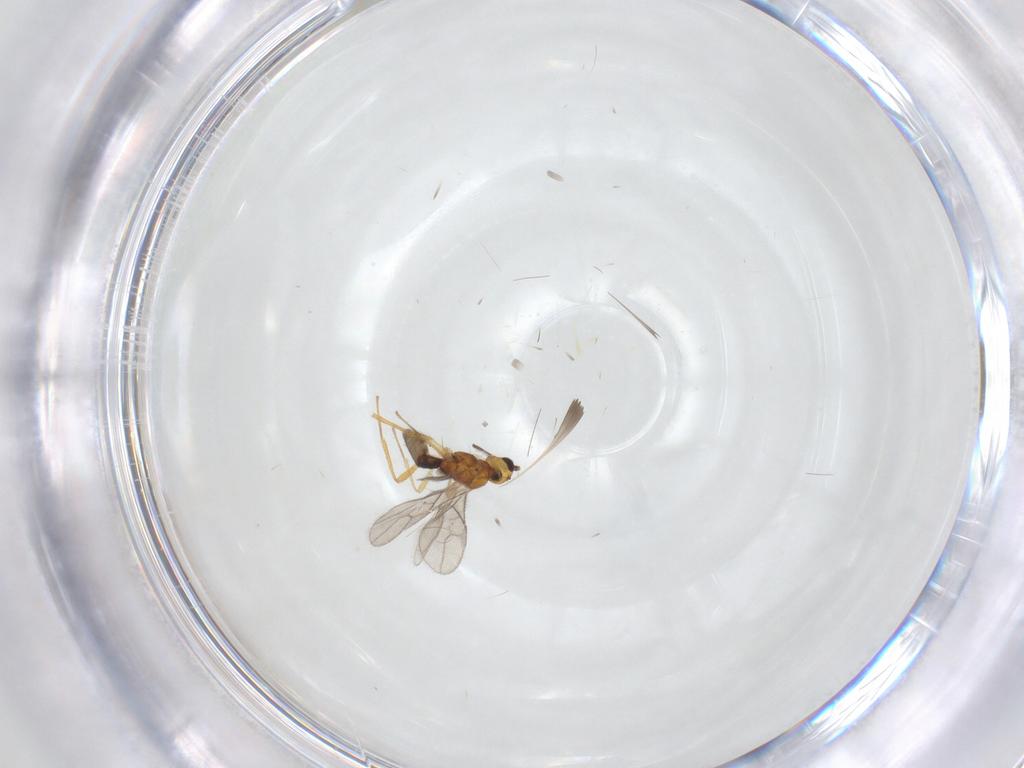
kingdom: Animalia
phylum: Arthropoda
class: Insecta
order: Hymenoptera
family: Braconidae
